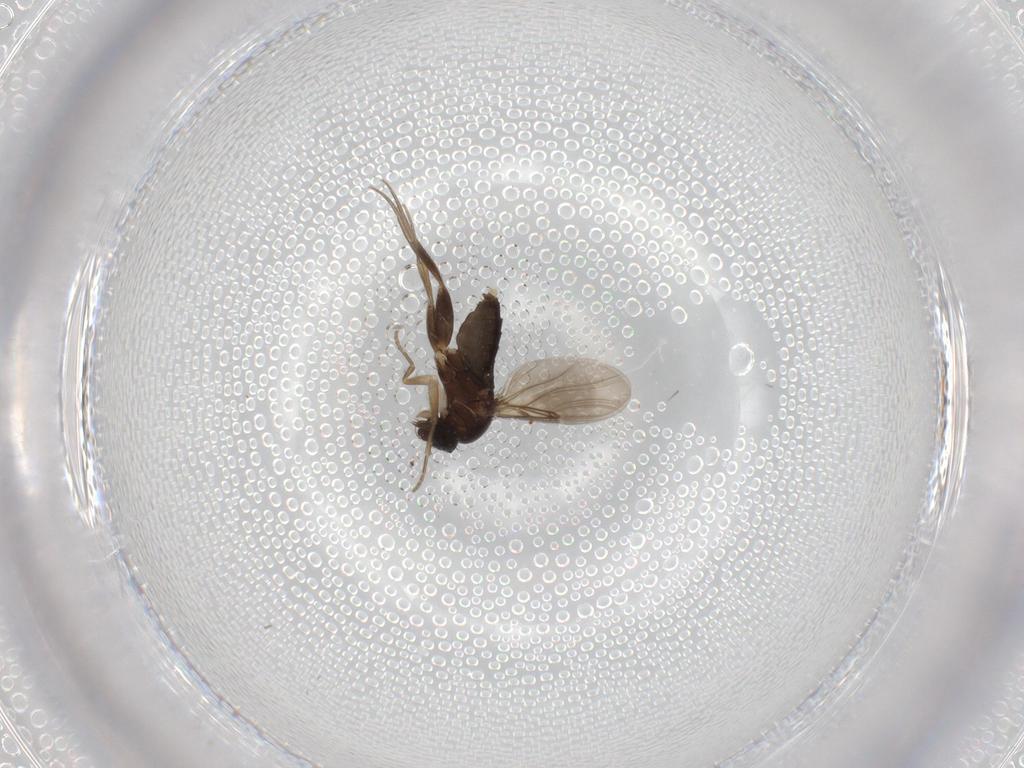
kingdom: Animalia
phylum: Arthropoda
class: Insecta
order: Diptera
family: Phoridae
